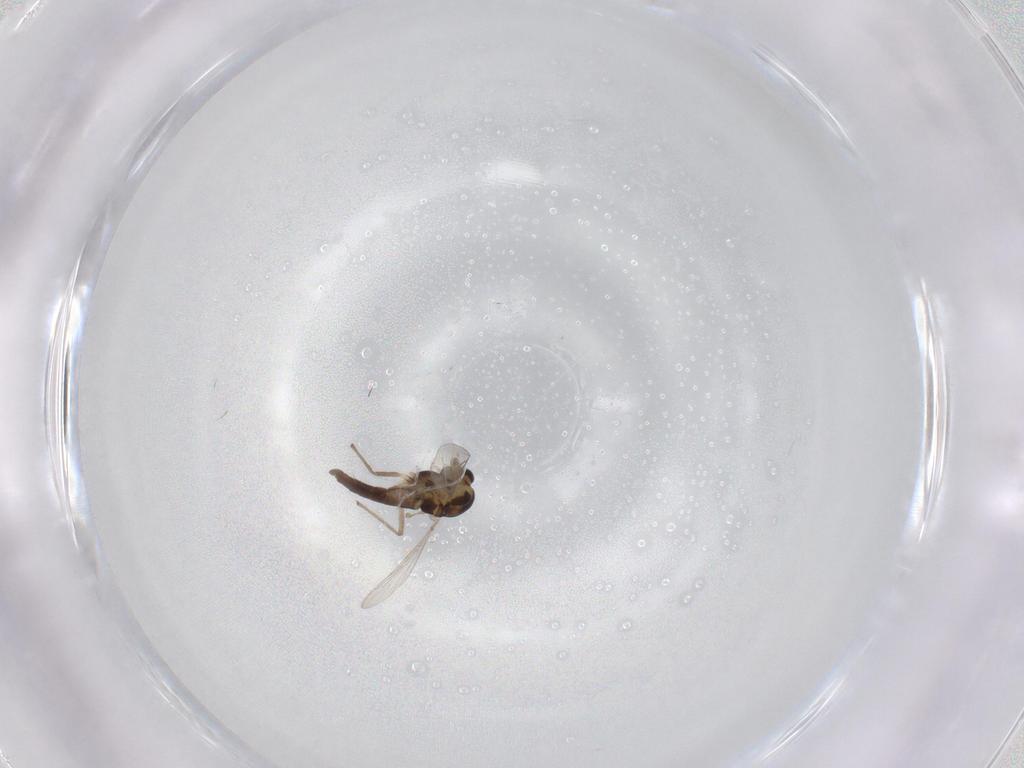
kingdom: Animalia
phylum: Arthropoda
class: Insecta
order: Diptera
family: Chironomidae
